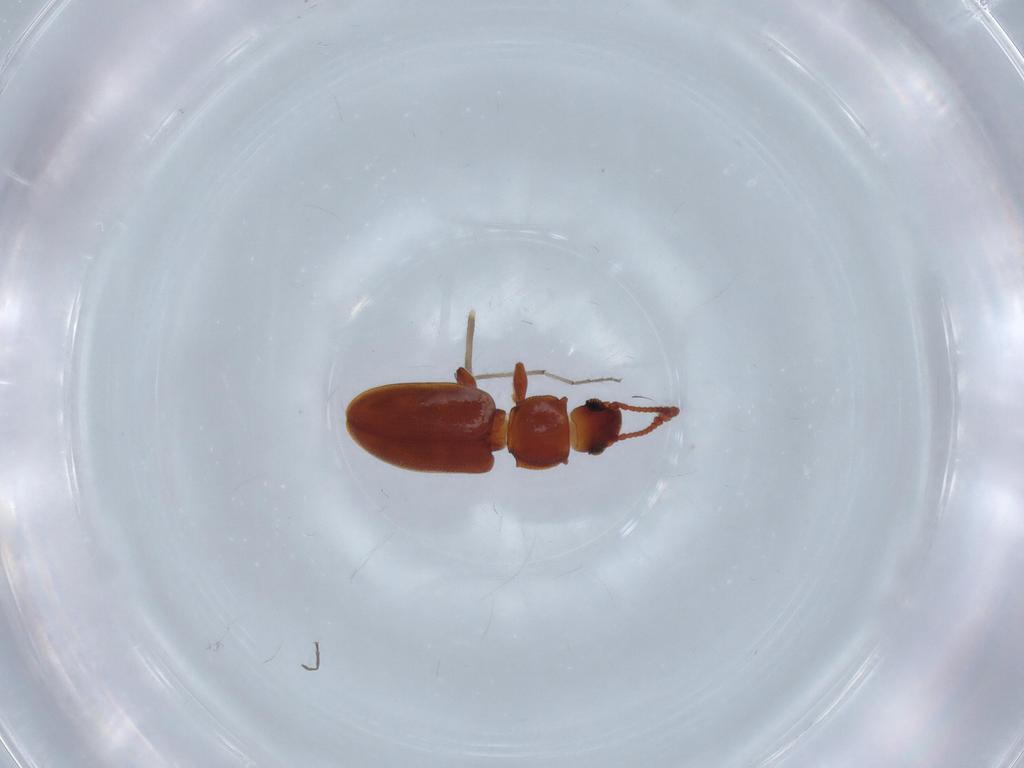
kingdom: Animalia
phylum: Arthropoda
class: Insecta
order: Coleoptera
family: Silvanidae
